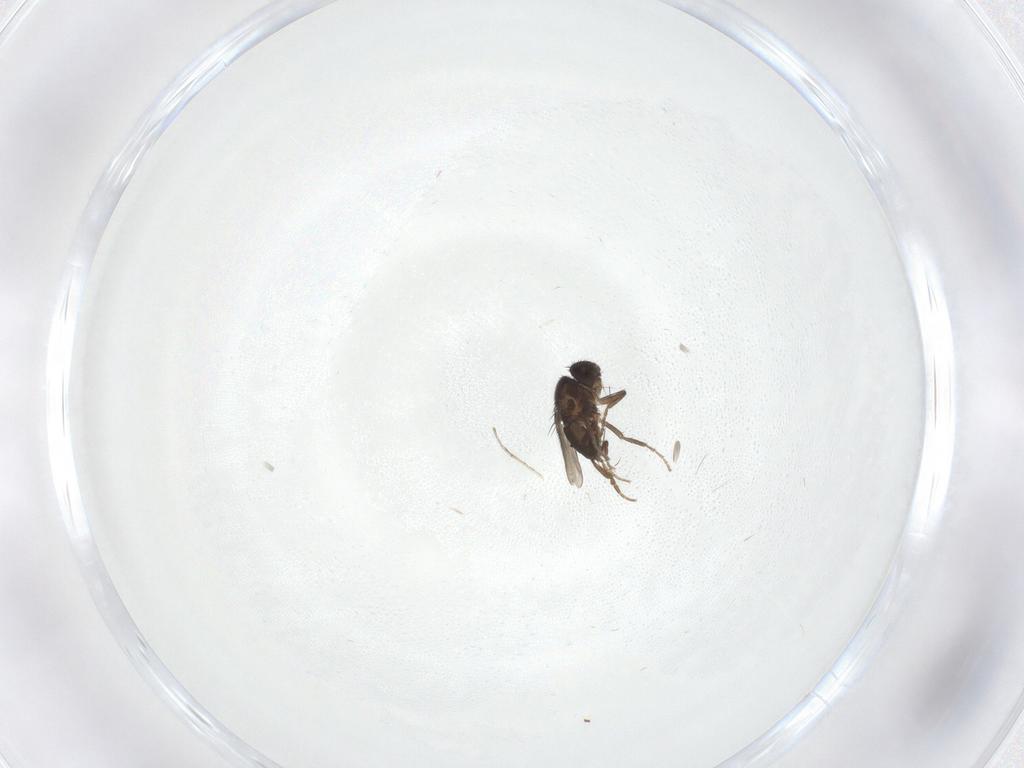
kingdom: Animalia
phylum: Arthropoda
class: Insecta
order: Diptera
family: Cecidomyiidae
